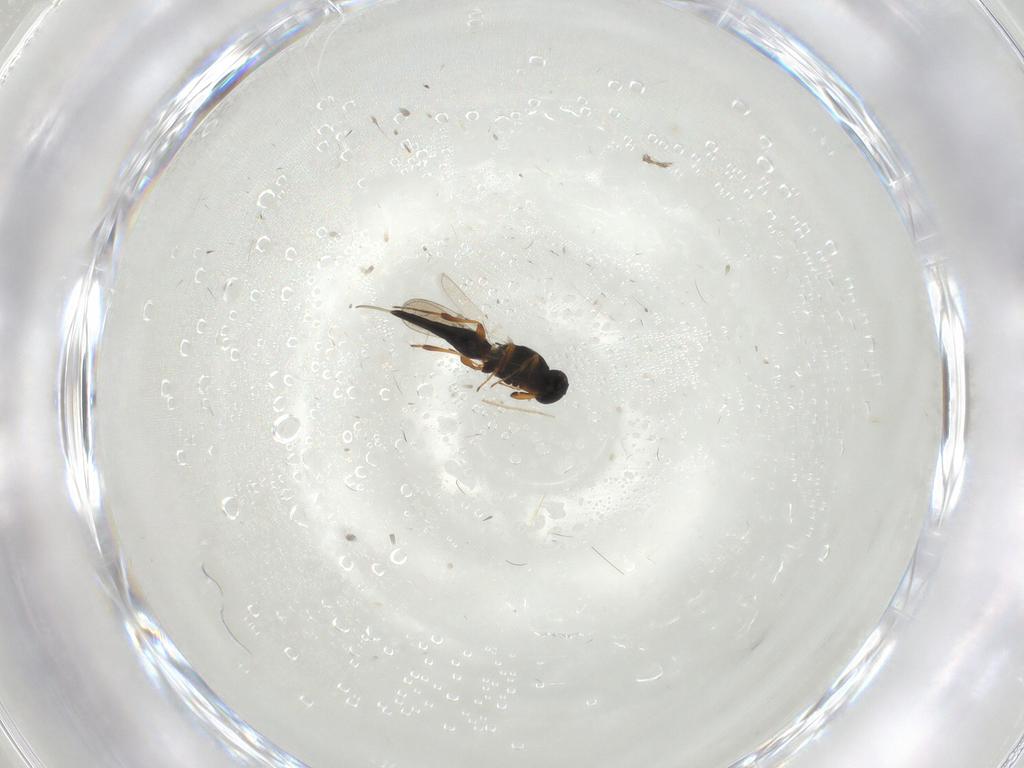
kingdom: Animalia
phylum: Arthropoda
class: Insecta
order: Hymenoptera
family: Platygastridae
